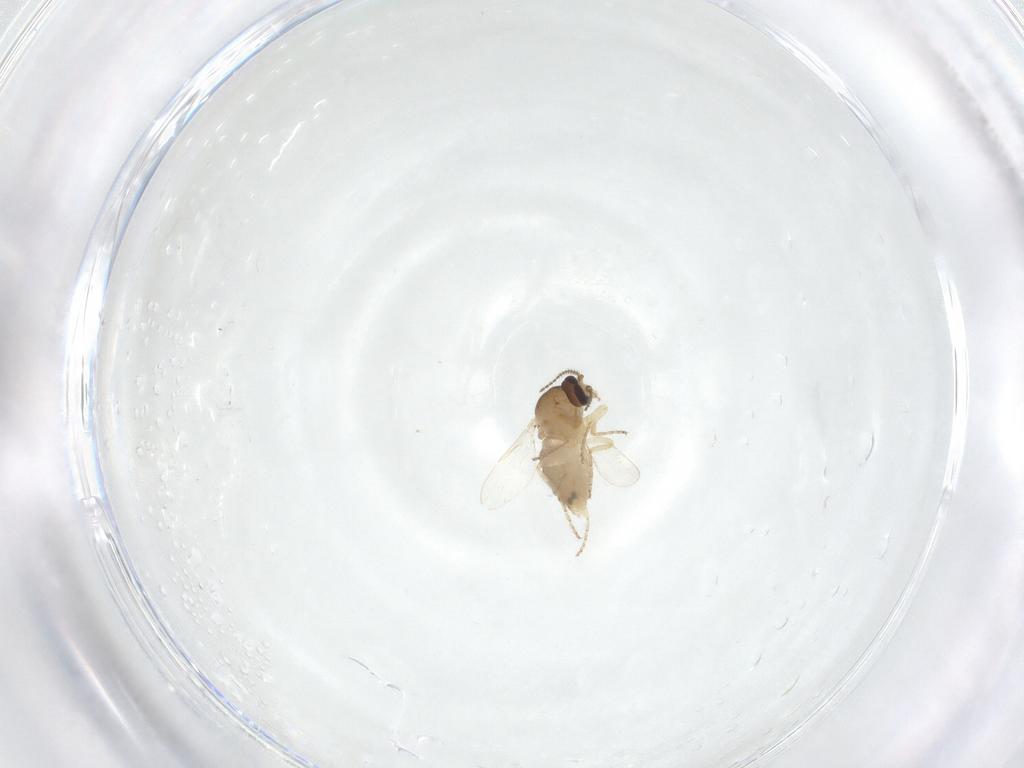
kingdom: Animalia
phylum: Arthropoda
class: Insecta
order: Diptera
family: Ceratopogonidae
